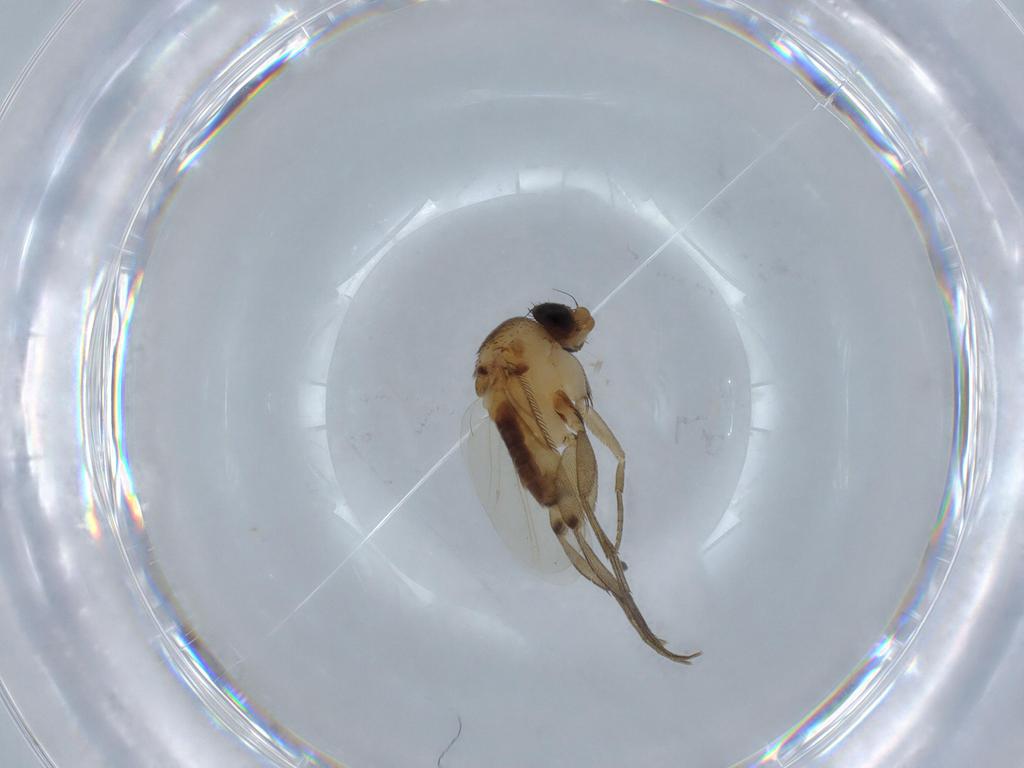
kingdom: Animalia
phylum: Arthropoda
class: Insecta
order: Diptera
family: Phoridae
